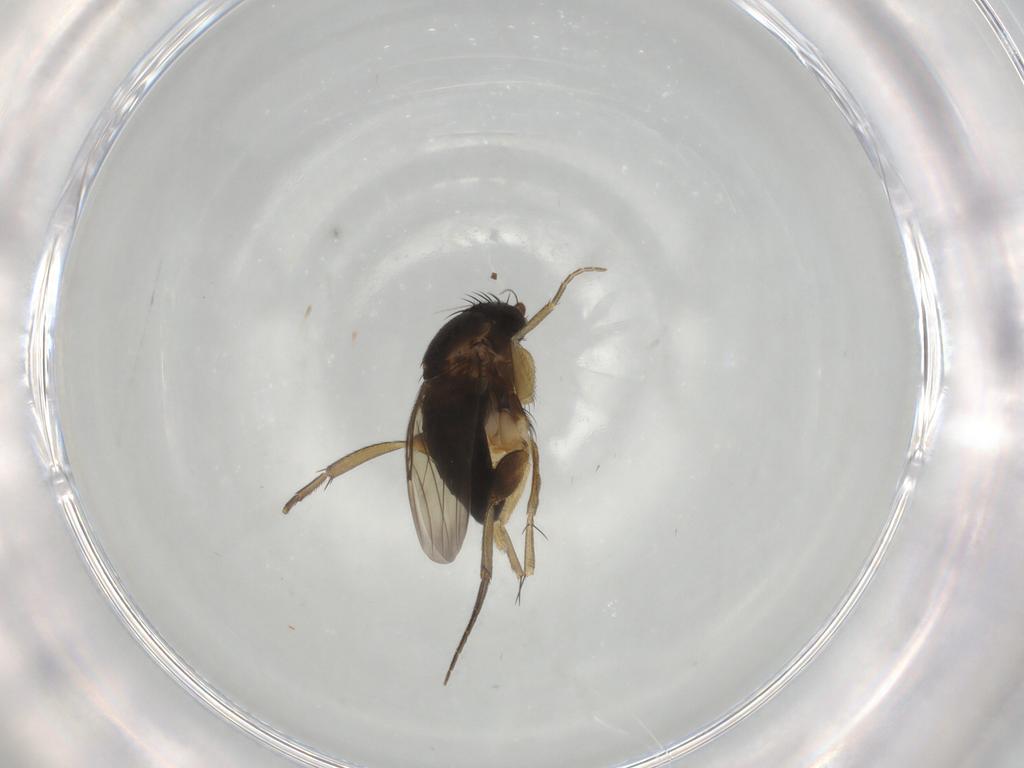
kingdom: Animalia
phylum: Arthropoda
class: Insecta
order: Diptera
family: Phoridae
